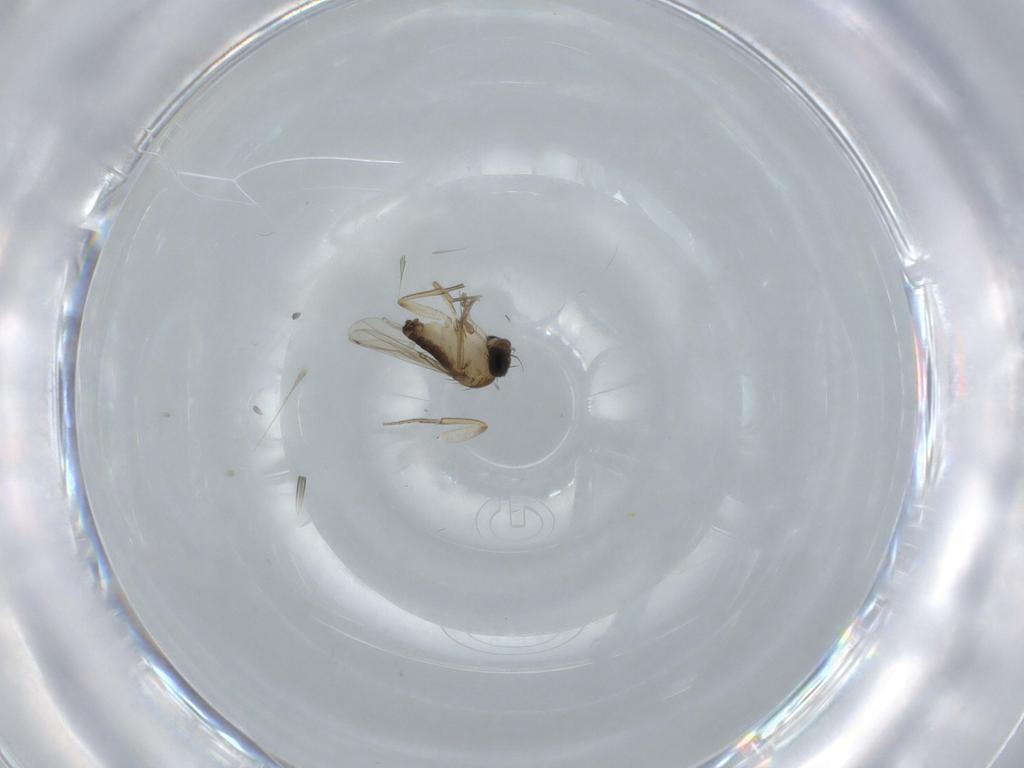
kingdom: Animalia
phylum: Arthropoda
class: Insecta
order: Diptera
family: Phoridae
